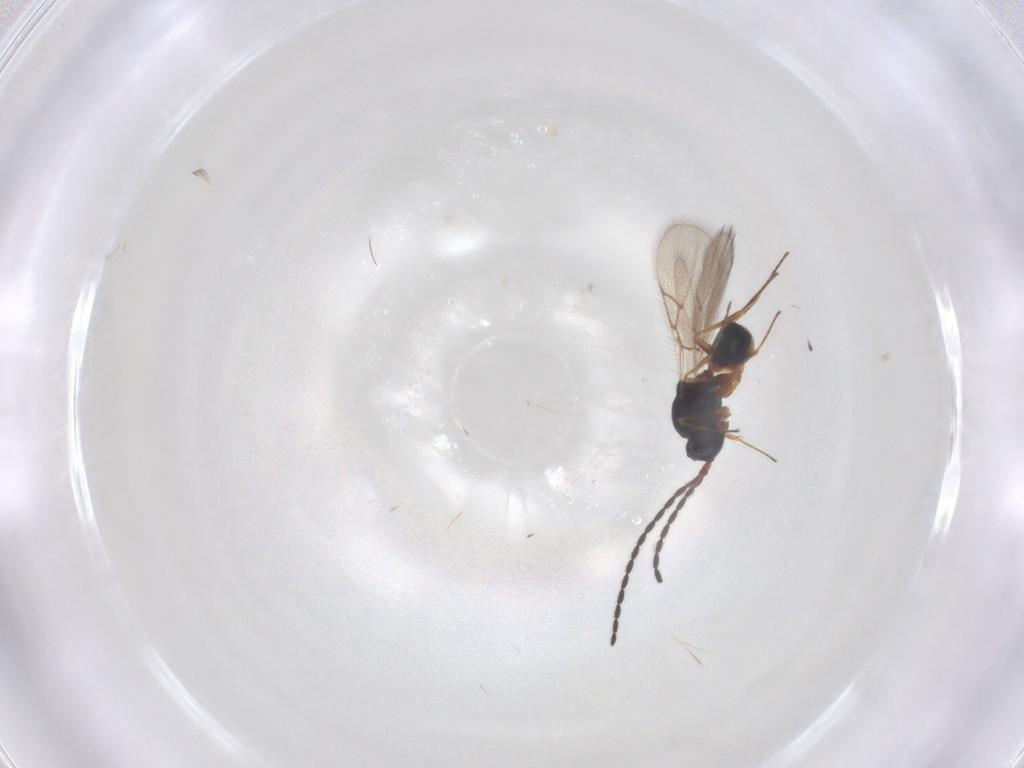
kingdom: Animalia
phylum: Arthropoda
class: Insecta
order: Hymenoptera
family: Figitidae
